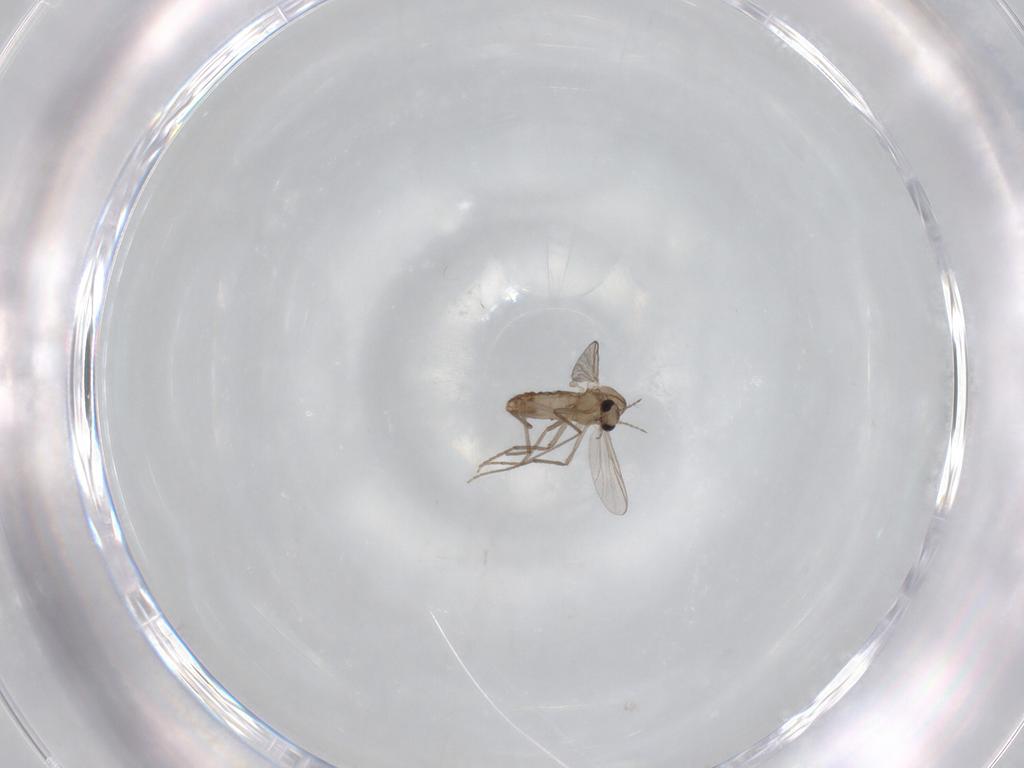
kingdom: Animalia
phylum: Arthropoda
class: Insecta
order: Diptera
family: Chironomidae
